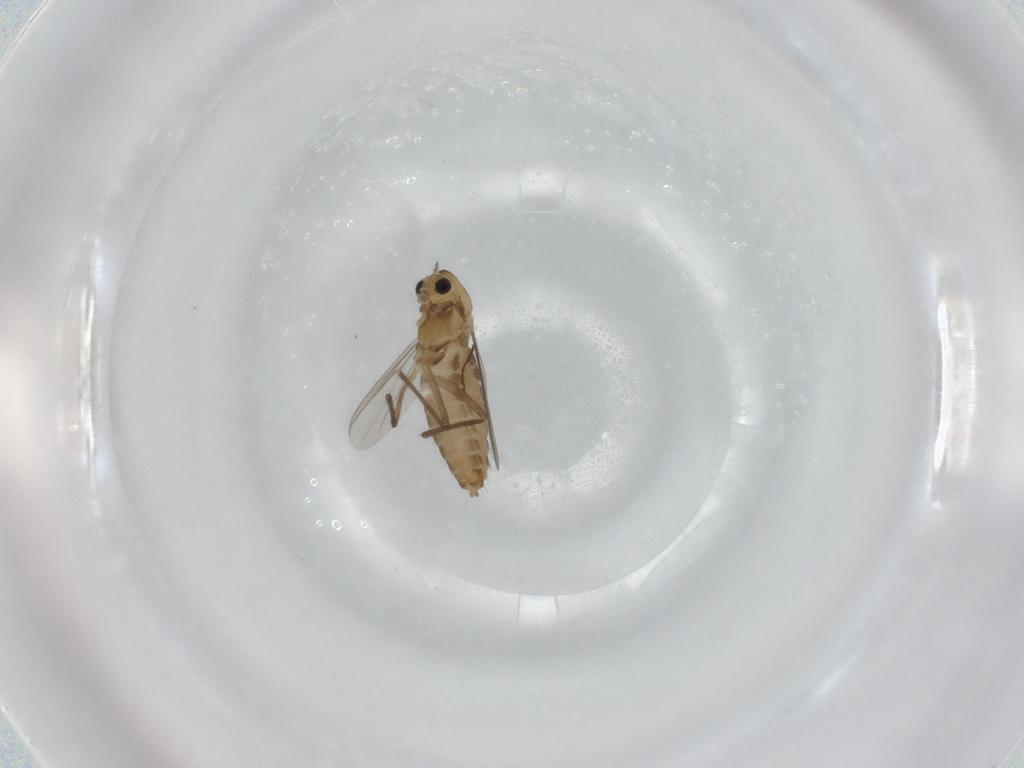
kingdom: Animalia
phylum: Arthropoda
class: Insecta
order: Diptera
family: Chironomidae
